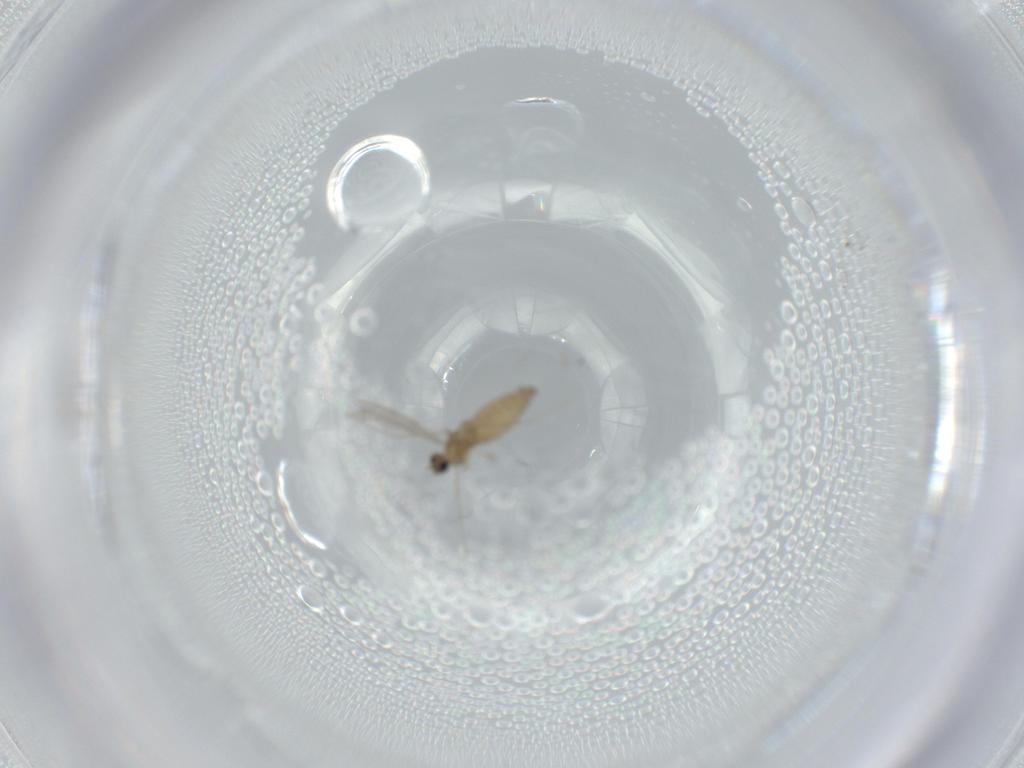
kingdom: Animalia
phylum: Arthropoda
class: Insecta
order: Diptera
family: Cecidomyiidae
